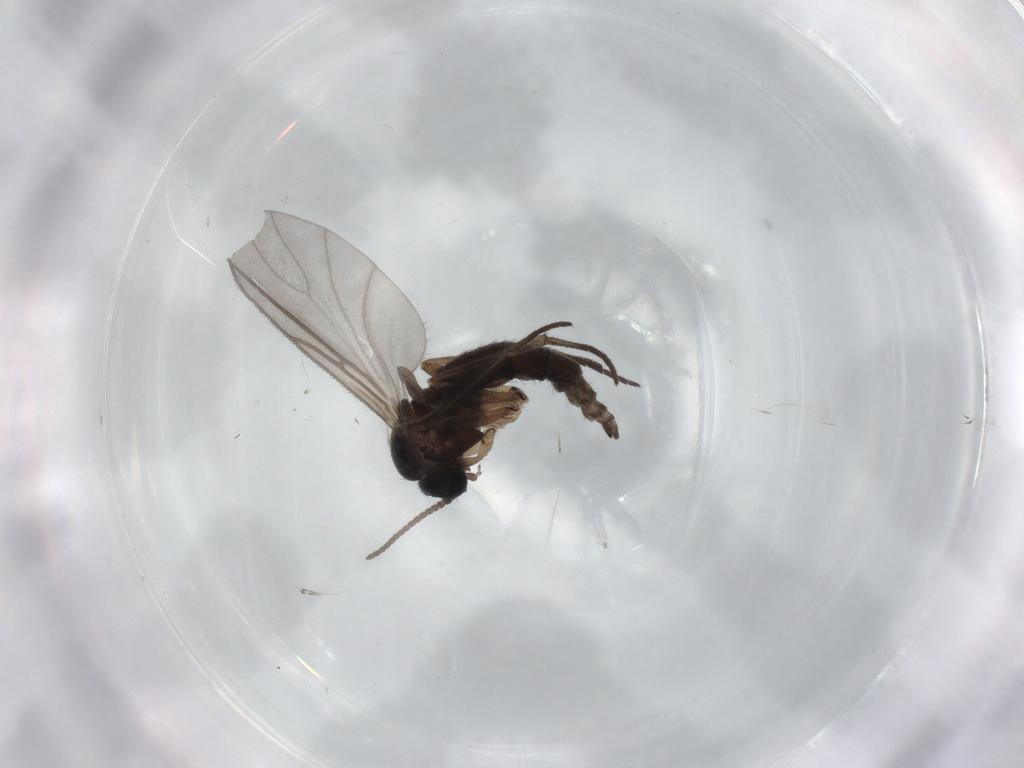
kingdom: Animalia
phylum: Arthropoda
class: Insecta
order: Diptera
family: Sciaridae
